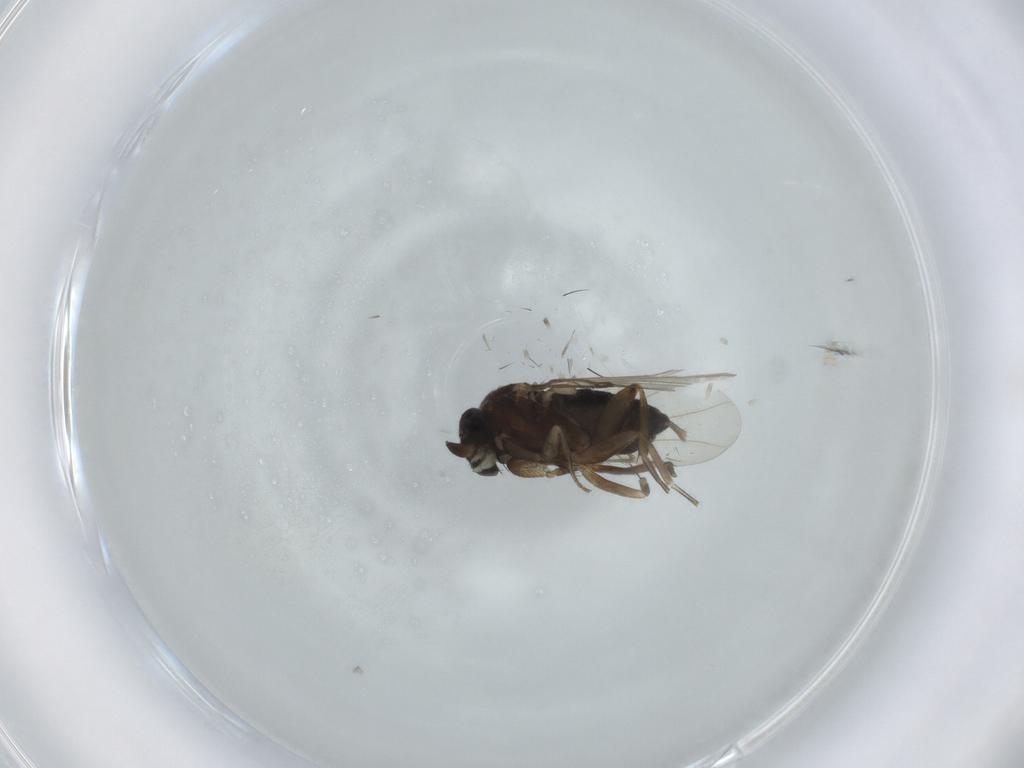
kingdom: Animalia
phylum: Arthropoda
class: Insecta
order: Diptera
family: Phoridae
